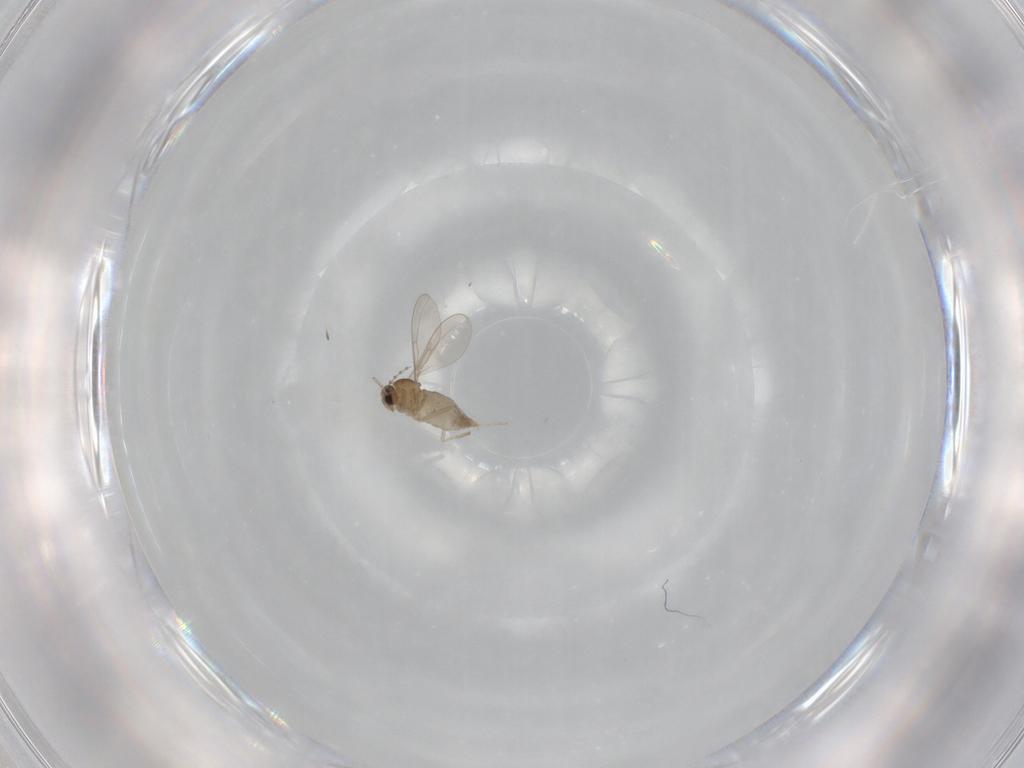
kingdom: Animalia
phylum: Arthropoda
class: Insecta
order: Diptera
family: Cecidomyiidae
